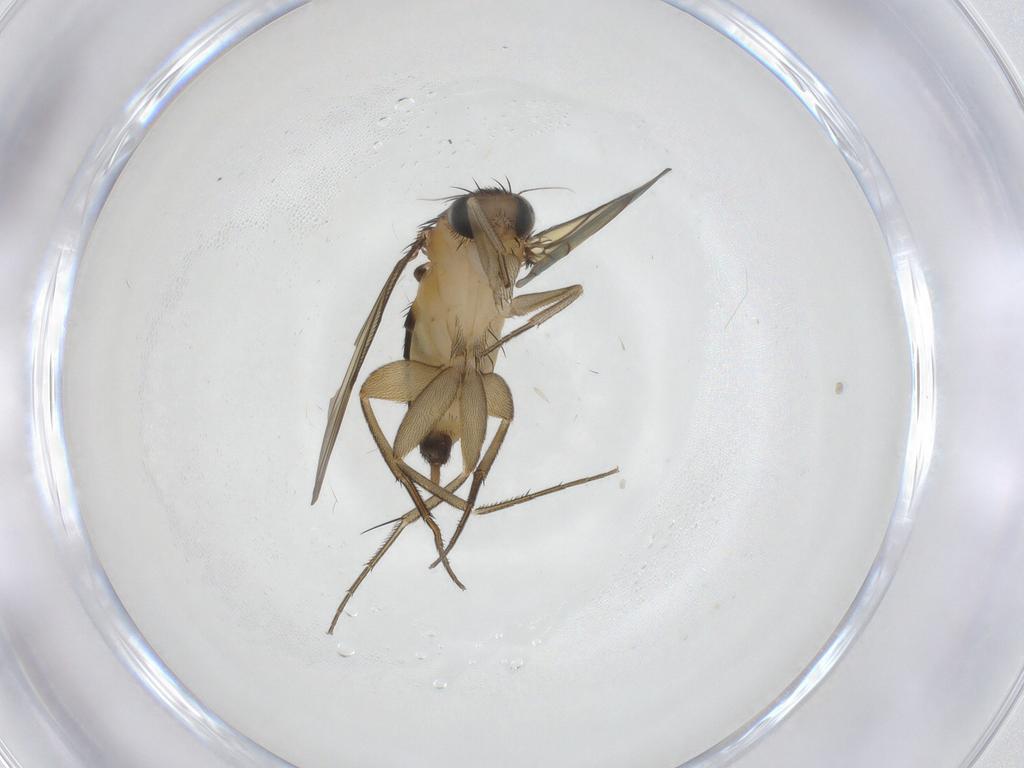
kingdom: Animalia
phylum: Arthropoda
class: Insecta
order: Diptera
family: Phoridae
